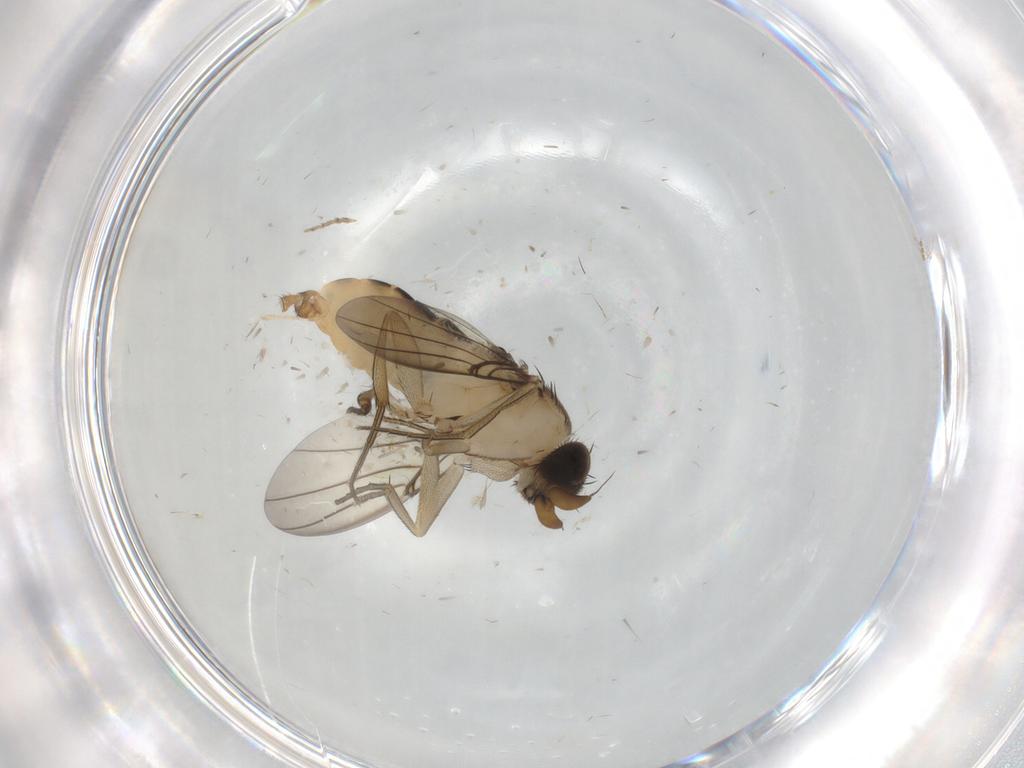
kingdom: Animalia
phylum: Arthropoda
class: Insecta
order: Diptera
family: Phoridae
